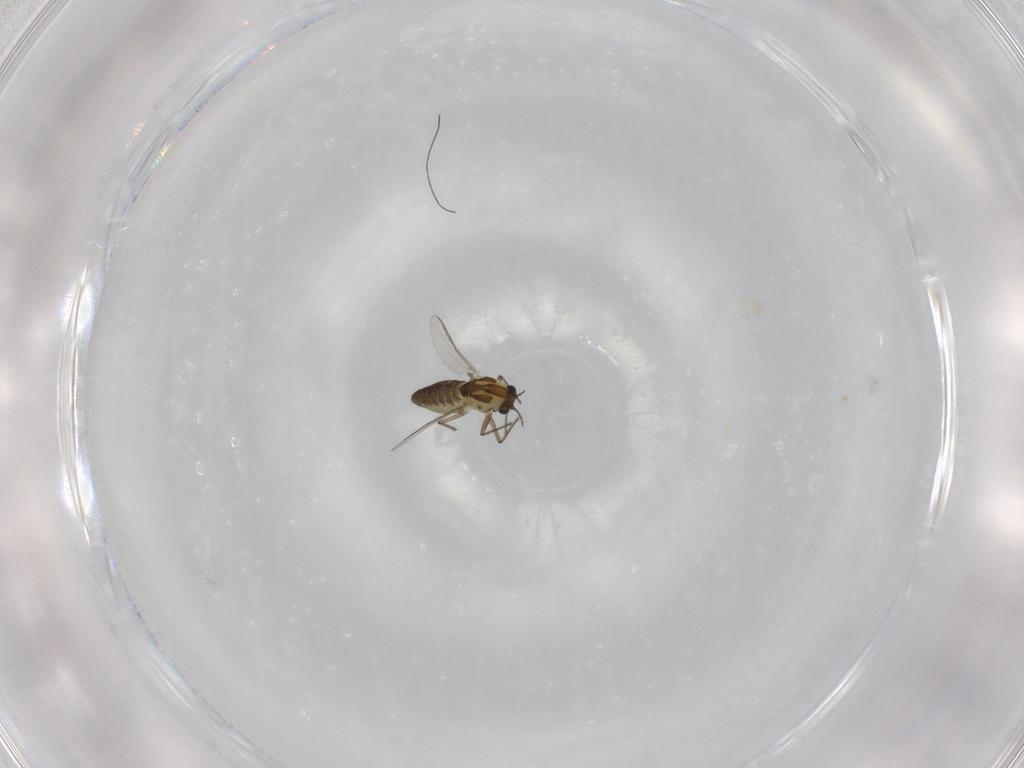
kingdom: Animalia
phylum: Arthropoda
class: Insecta
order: Diptera
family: Chironomidae
